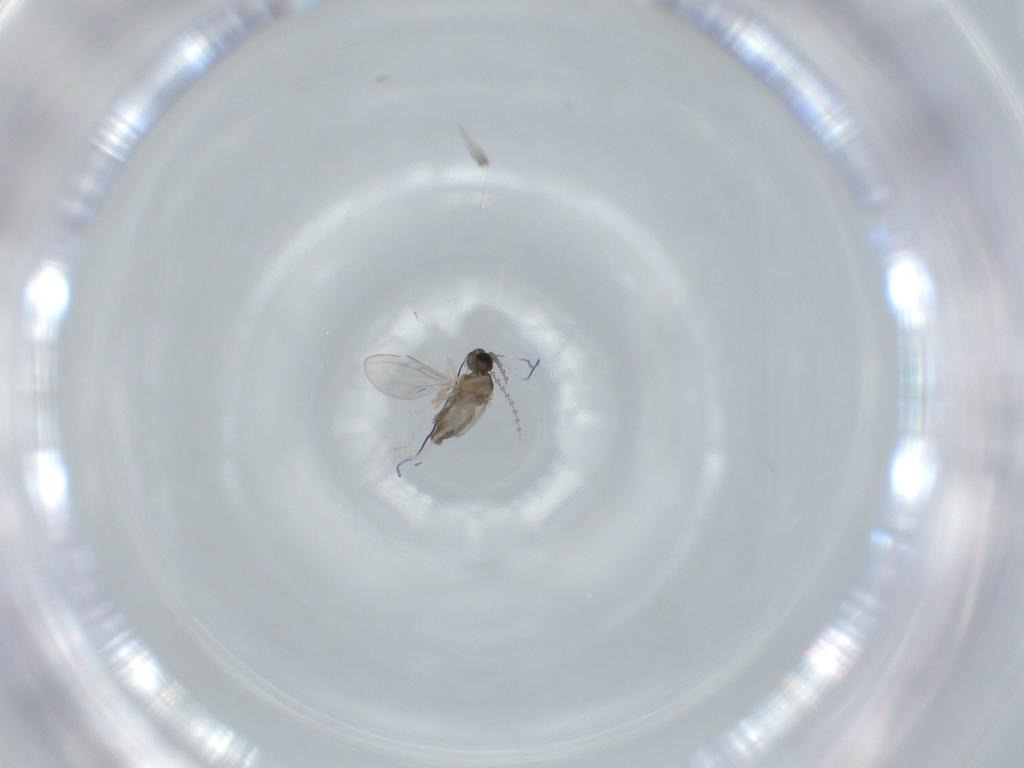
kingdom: Animalia
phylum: Arthropoda
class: Insecta
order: Diptera
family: Cecidomyiidae
